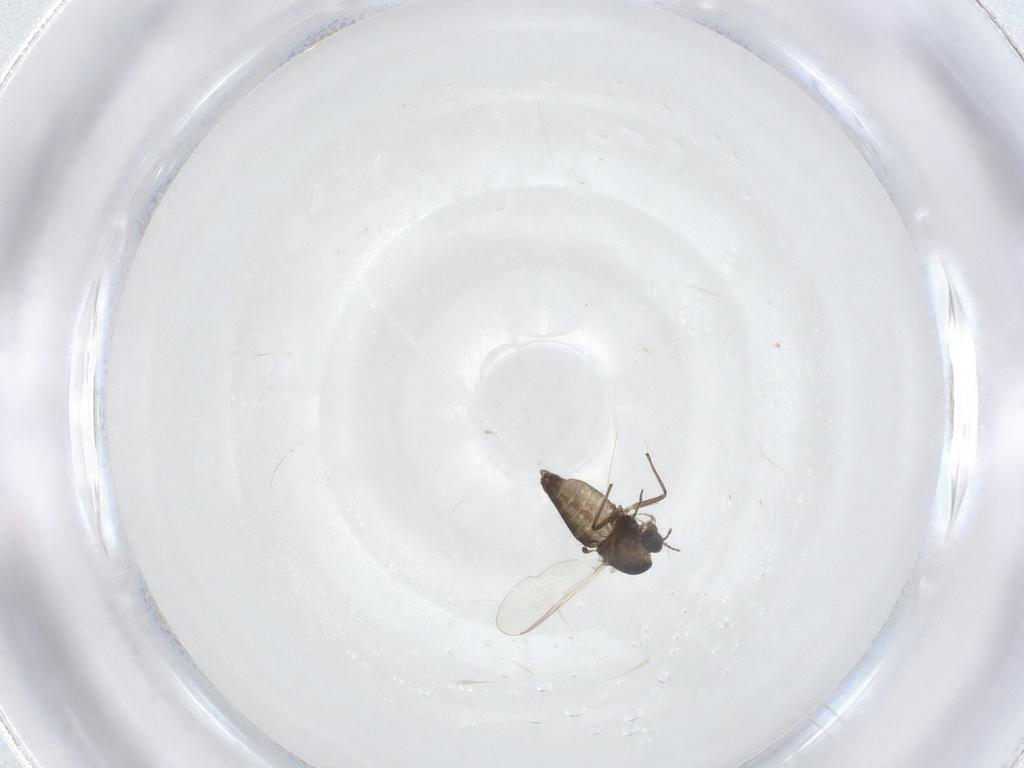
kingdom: Animalia
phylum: Arthropoda
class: Insecta
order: Diptera
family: Chironomidae
